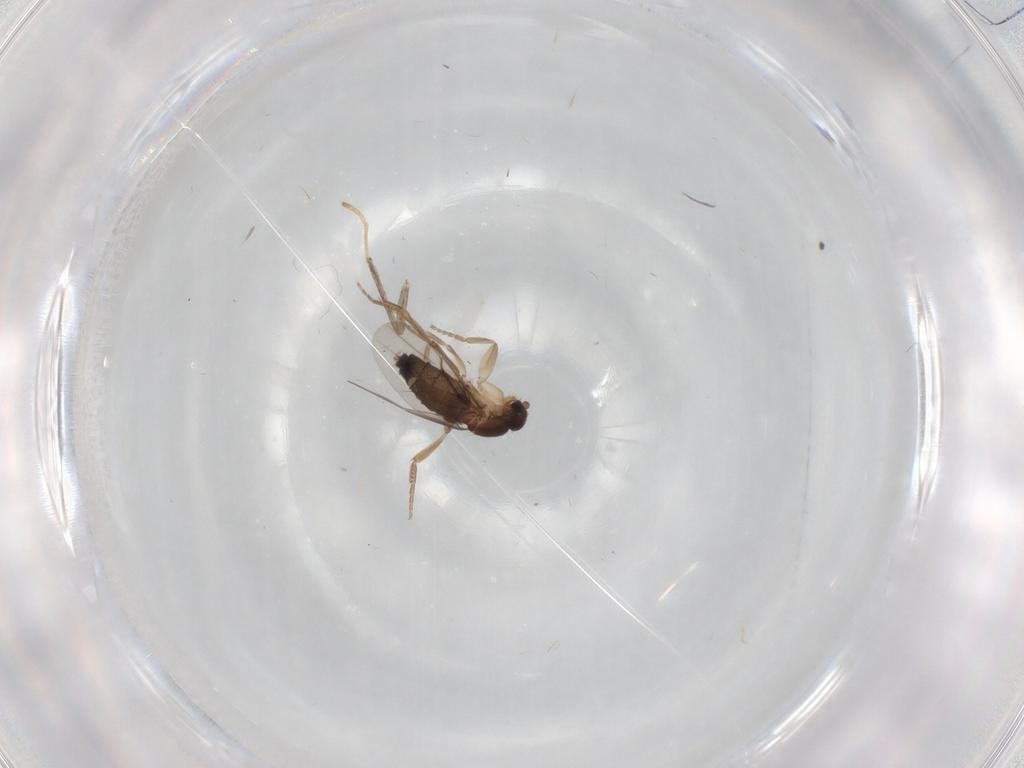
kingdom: Animalia
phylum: Arthropoda
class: Insecta
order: Diptera
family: Phoridae
